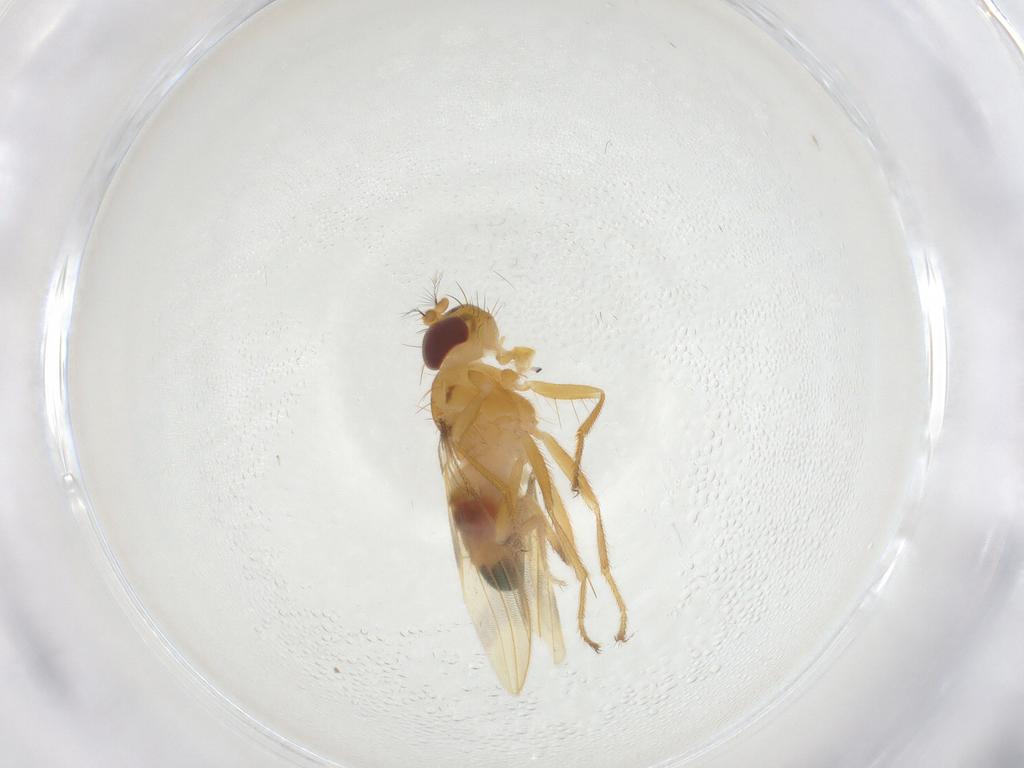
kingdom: Animalia
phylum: Arthropoda
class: Insecta
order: Diptera
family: Periscelididae
